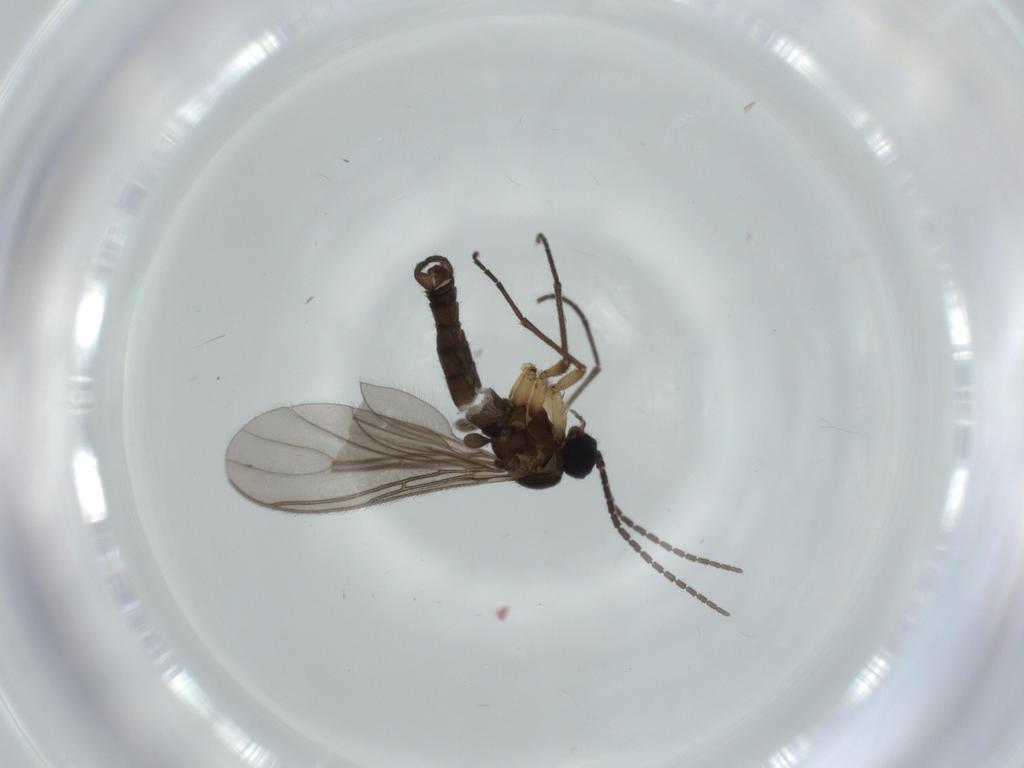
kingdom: Animalia
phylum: Arthropoda
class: Insecta
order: Diptera
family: Sciaridae
